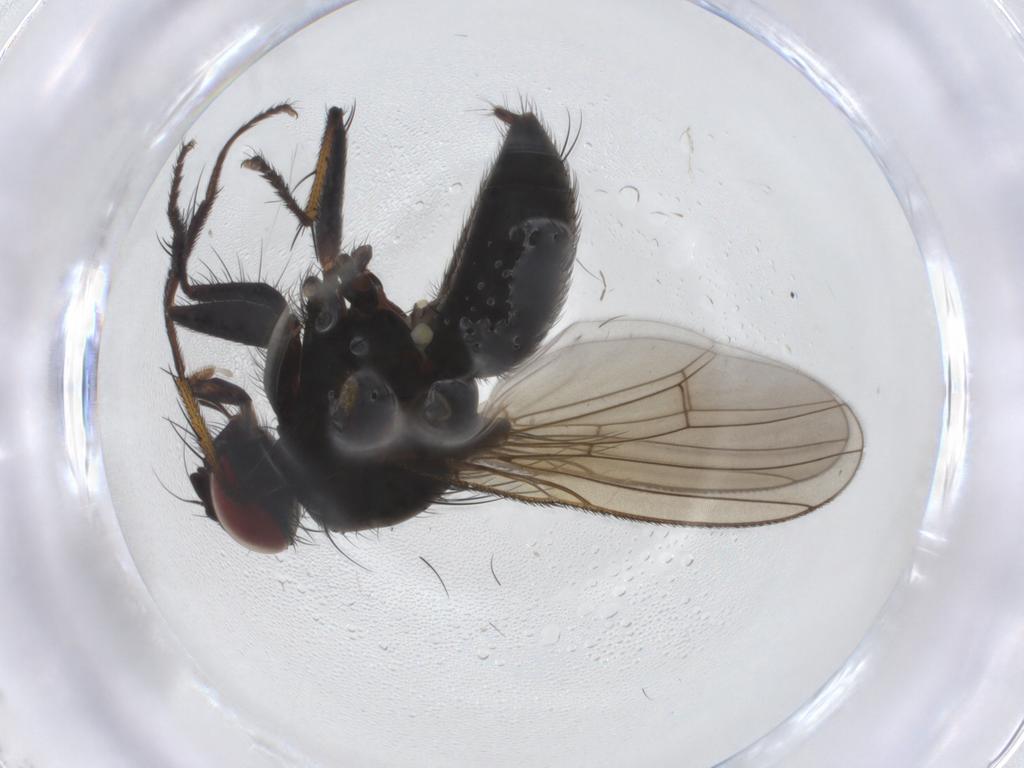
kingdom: Animalia
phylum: Arthropoda
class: Insecta
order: Diptera
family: Muscidae
